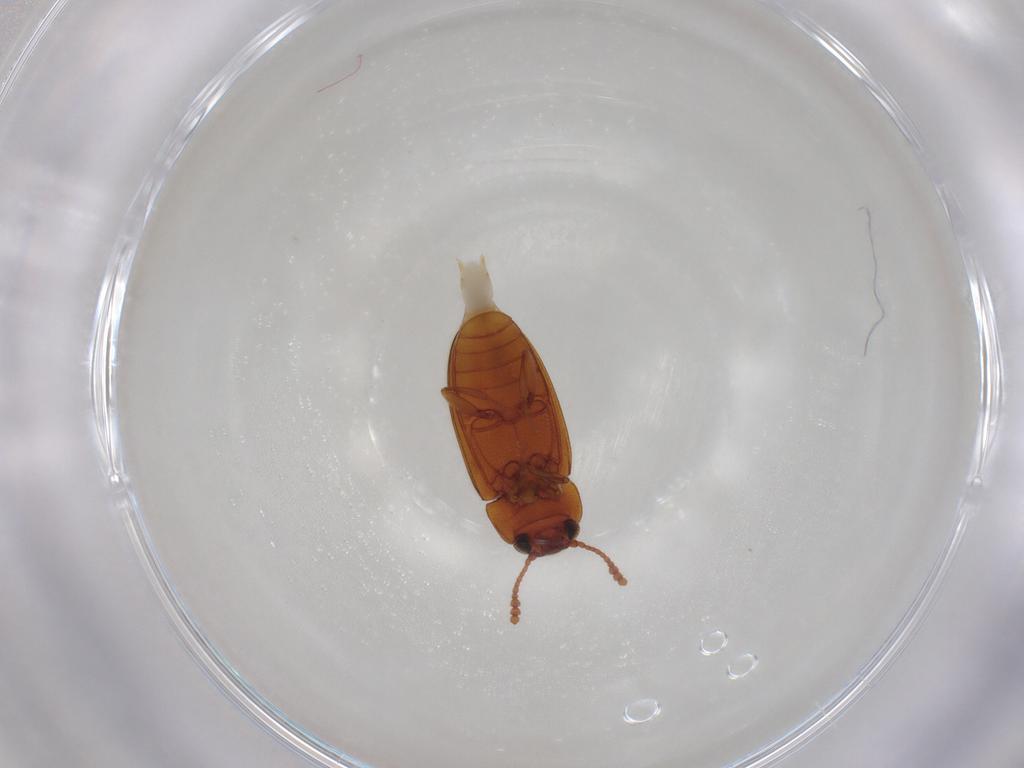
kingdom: Animalia
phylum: Arthropoda
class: Insecta
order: Coleoptera
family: Erotylidae
